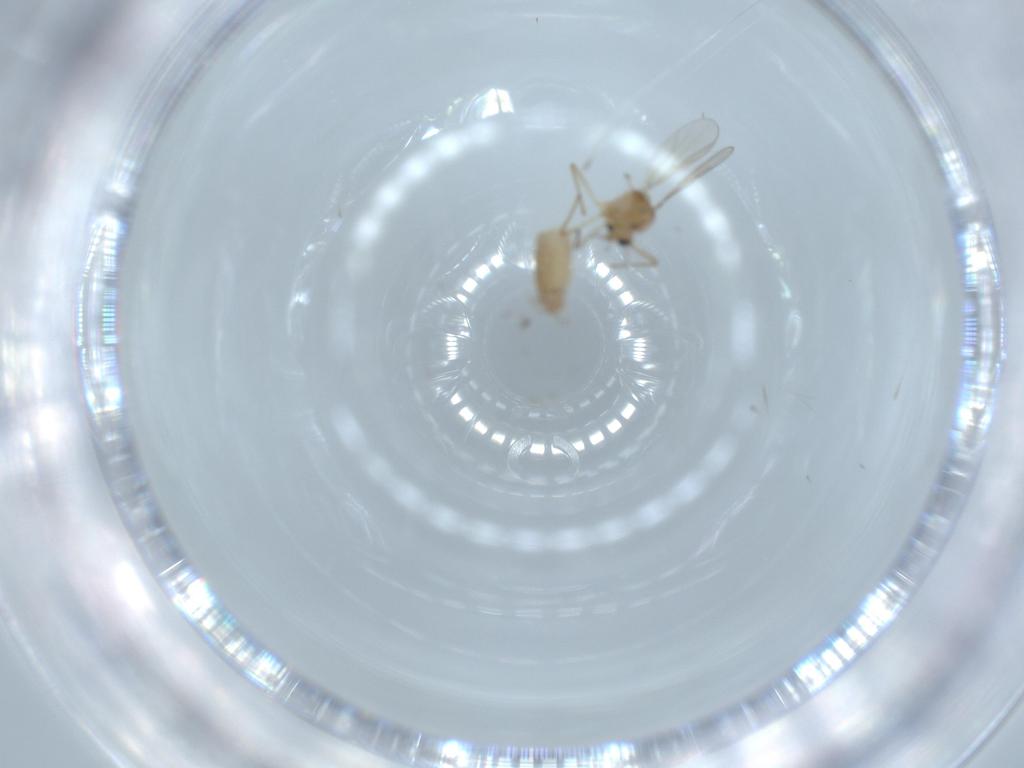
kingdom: Animalia
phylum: Arthropoda
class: Insecta
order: Diptera
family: Chironomidae
